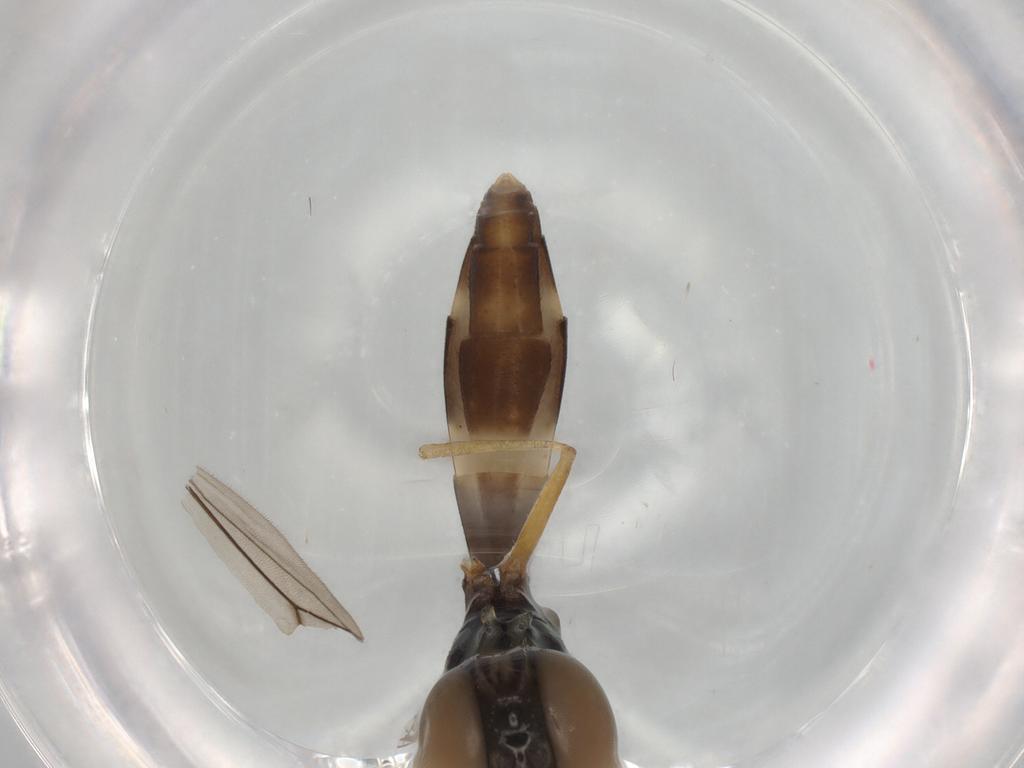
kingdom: Animalia
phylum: Arthropoda
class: Insecta
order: Diptera
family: Syrphidae
